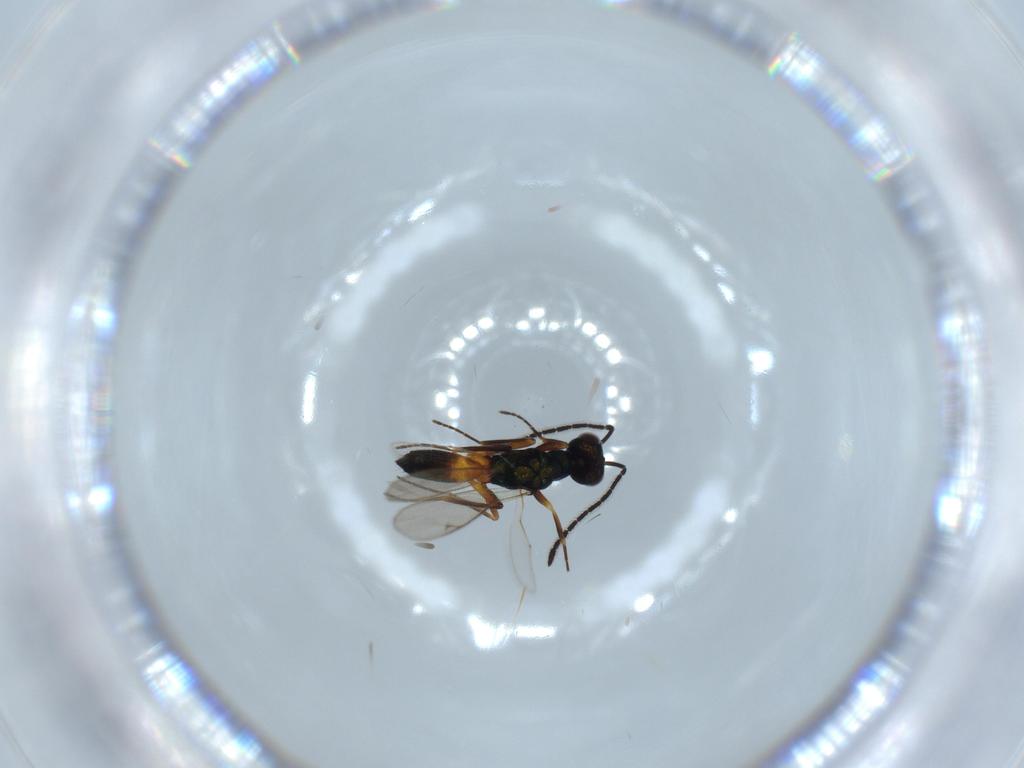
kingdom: Animalia
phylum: Arthropoda
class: Insecta
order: Hymenoptera
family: Eupelmidae
